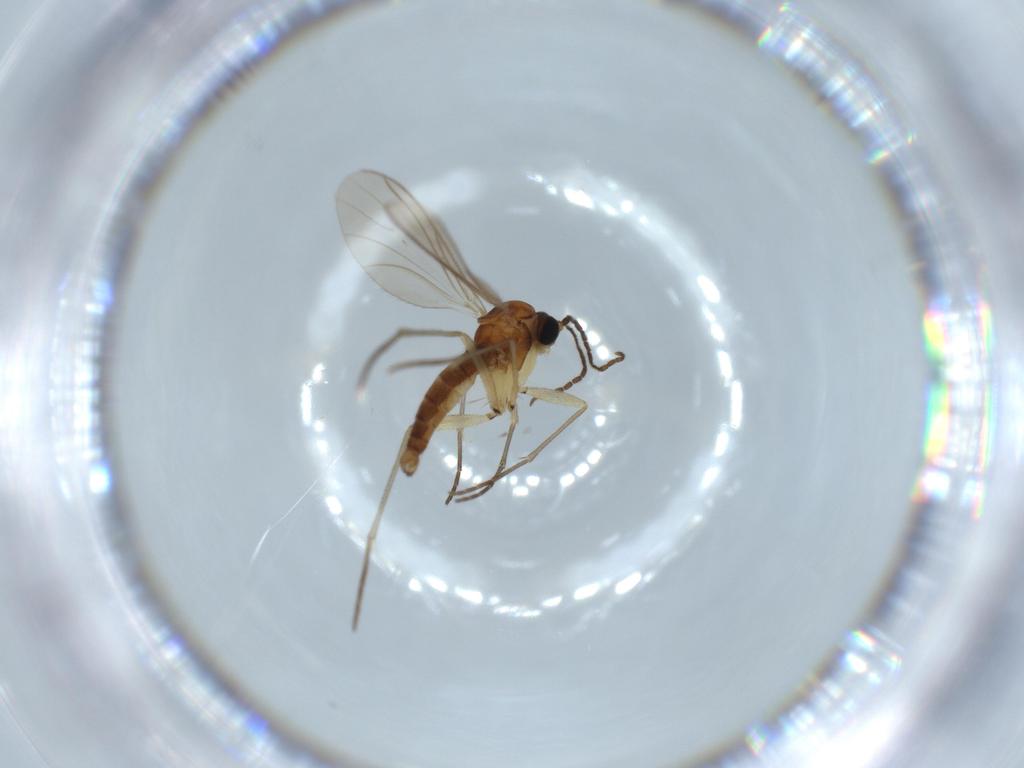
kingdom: Animalia
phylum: Arthropoda
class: Insecta
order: Diptera
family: Sciaridae
